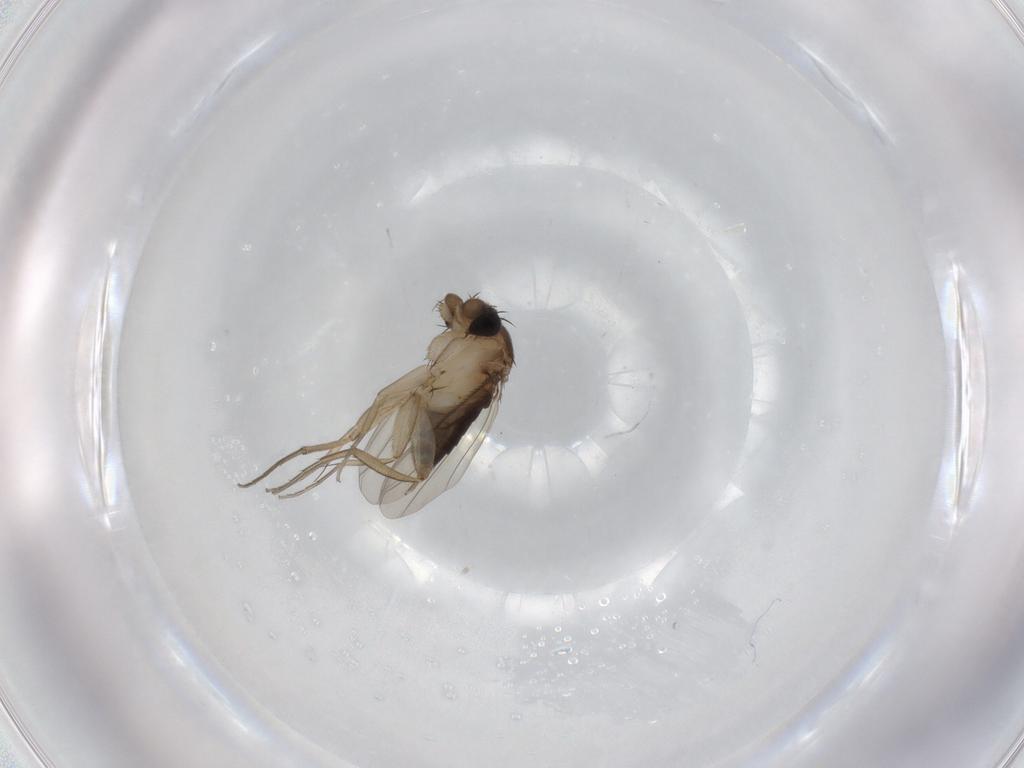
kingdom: Animalia
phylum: Arthropoda
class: Insecta
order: Diptera
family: Phoridae
